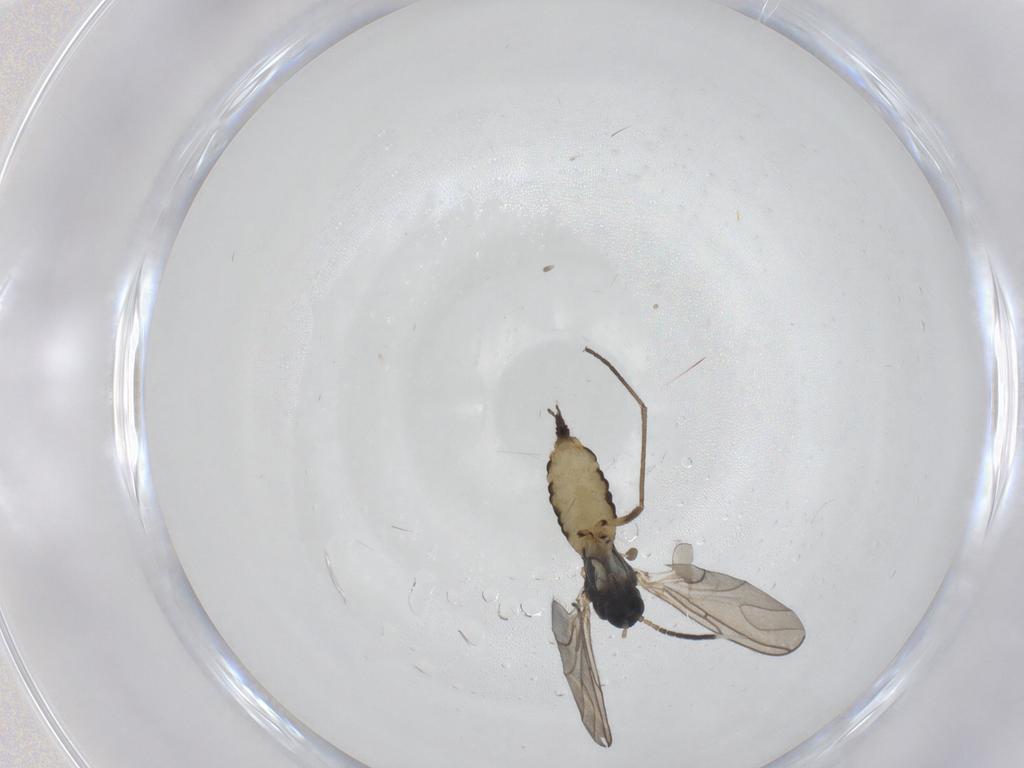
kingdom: Animalia
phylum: Arthropoda
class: Insecta
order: Diptera
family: Sciaridae
